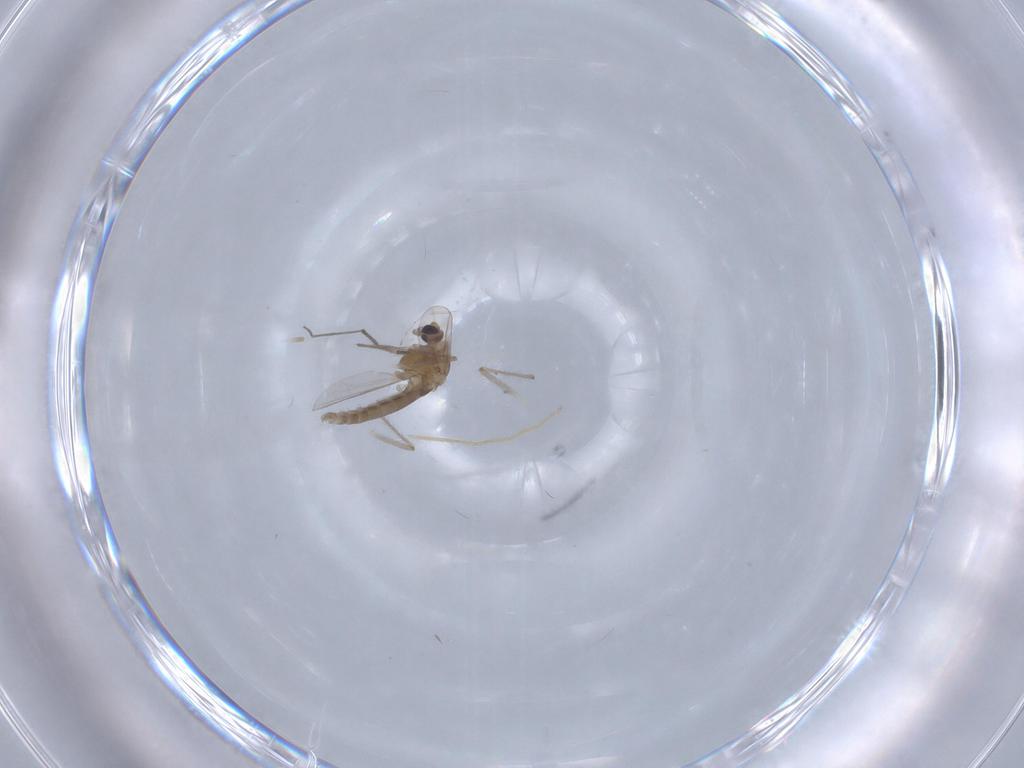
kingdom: Animalia
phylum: Arthropoda
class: Insecta
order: Diptera
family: Chironomidae
